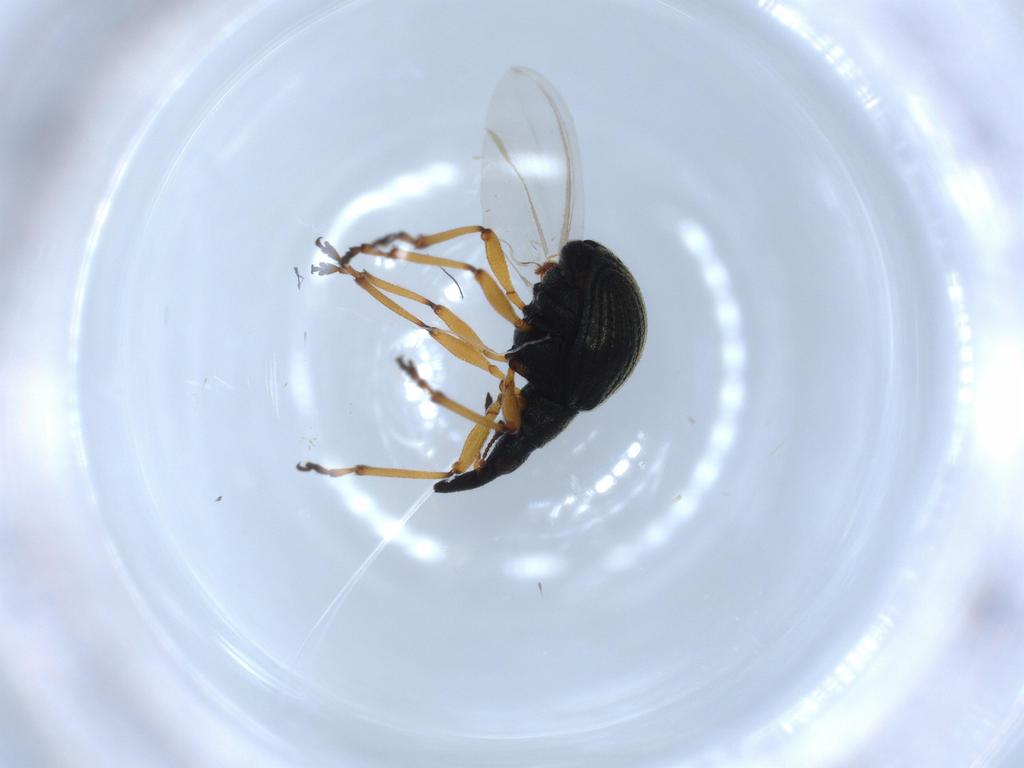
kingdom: Animalia
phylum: Arthropoda
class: Insecta
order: Coleoptera
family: Brentidae
